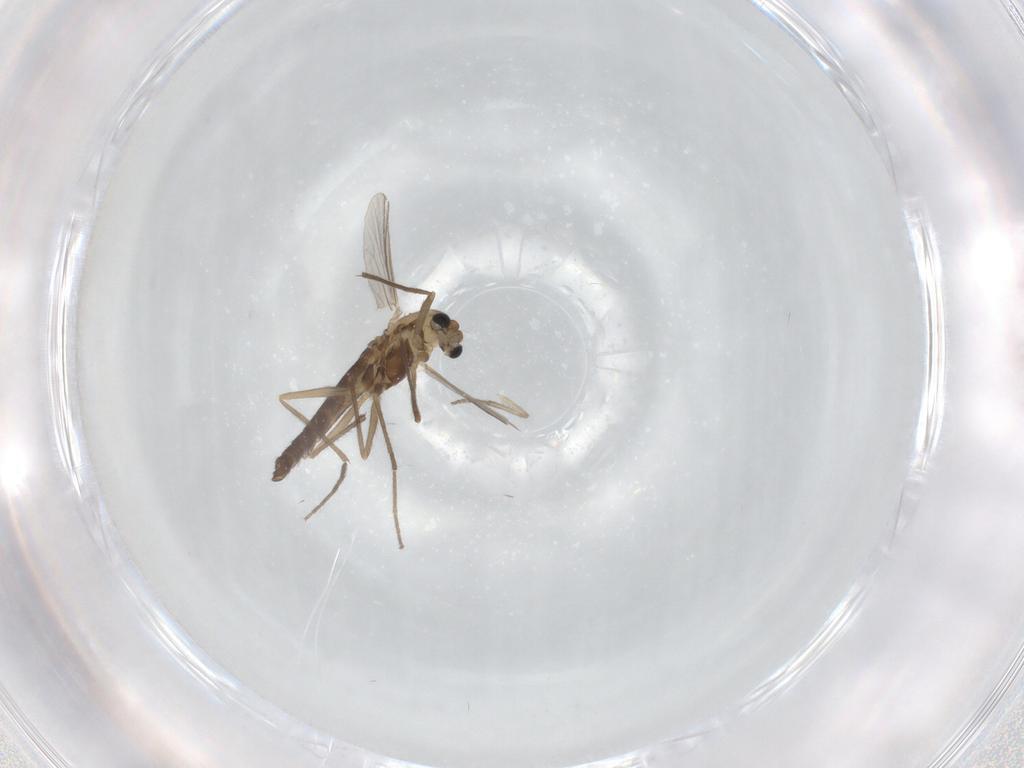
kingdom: Animalia
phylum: Arthropoda
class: Insecta
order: Diptera
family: Chironomidae
